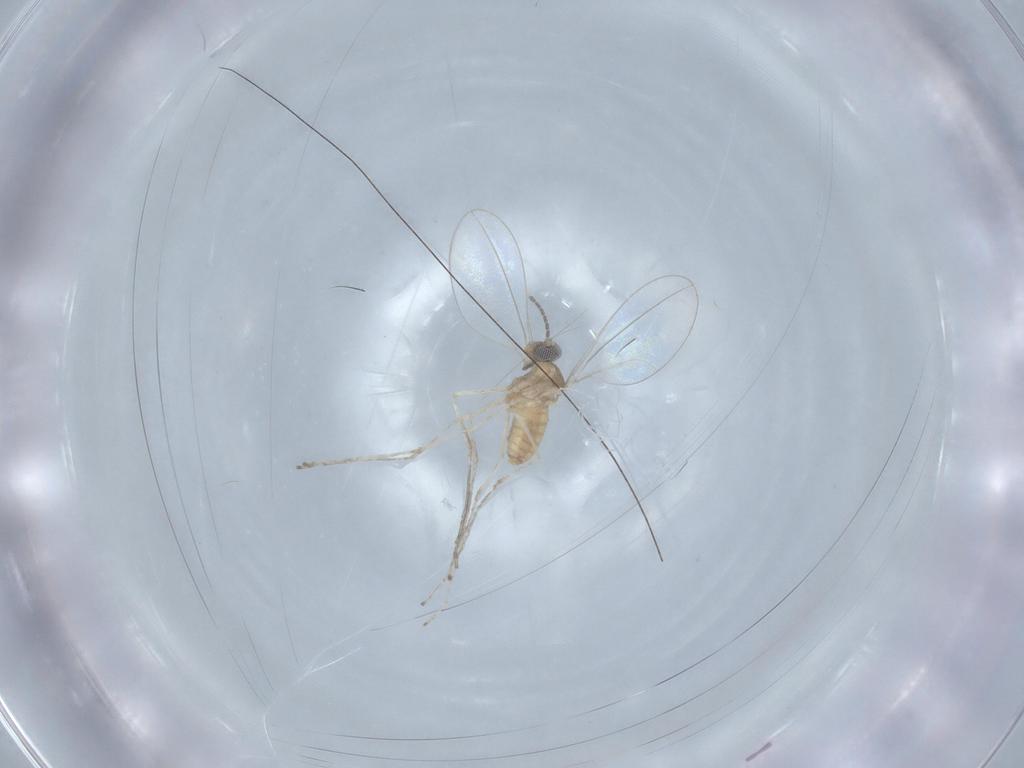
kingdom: Animalia
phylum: Arthropoda
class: Insecta
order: Diptera
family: Cecidomyiidae
